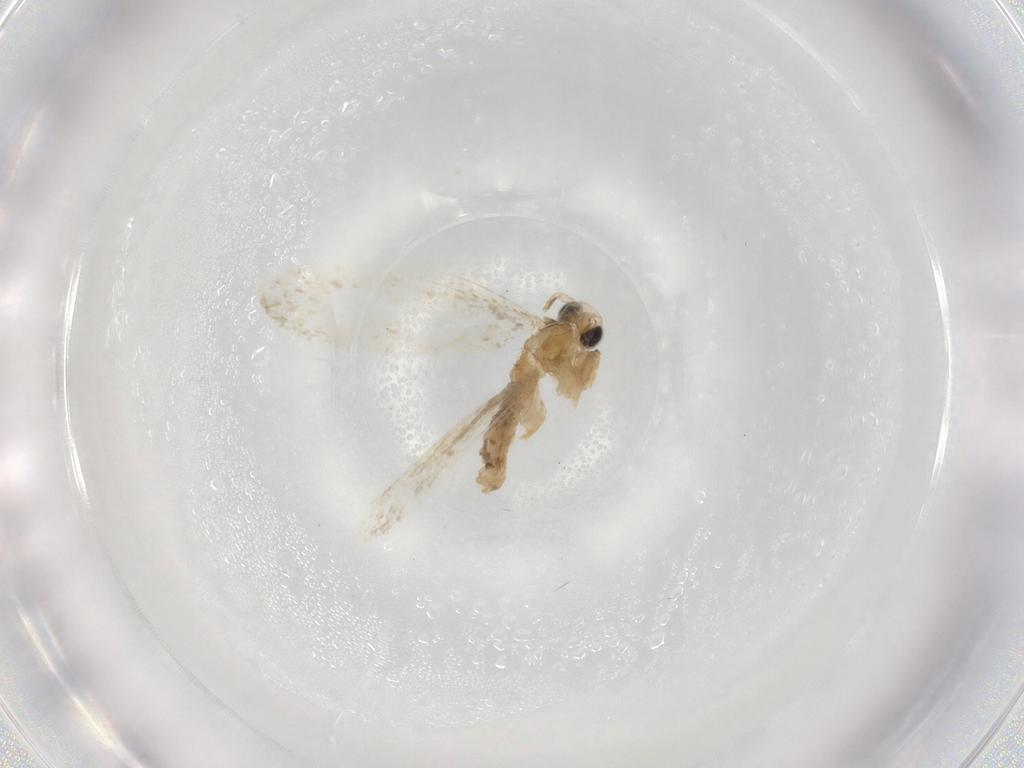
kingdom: Animalia
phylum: Arthropoda
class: Insecta
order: Lepidoptera
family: Psychidae
